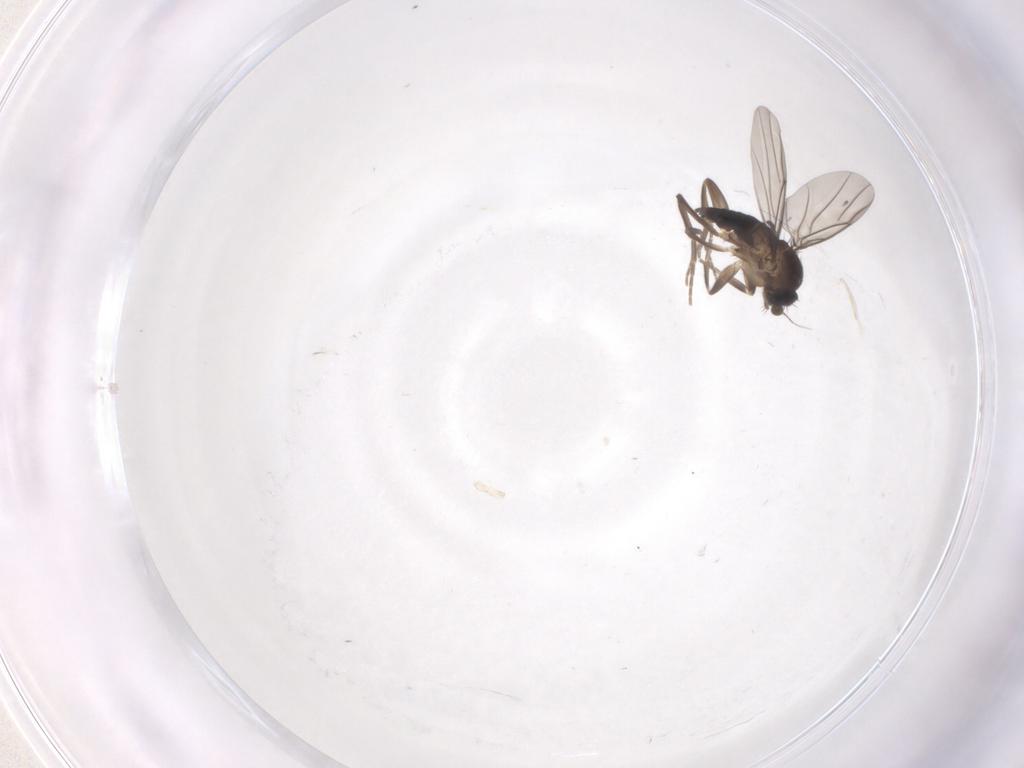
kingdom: Animalia
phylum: Arthropoda
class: Insecta
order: Diptera
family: Phoridae
